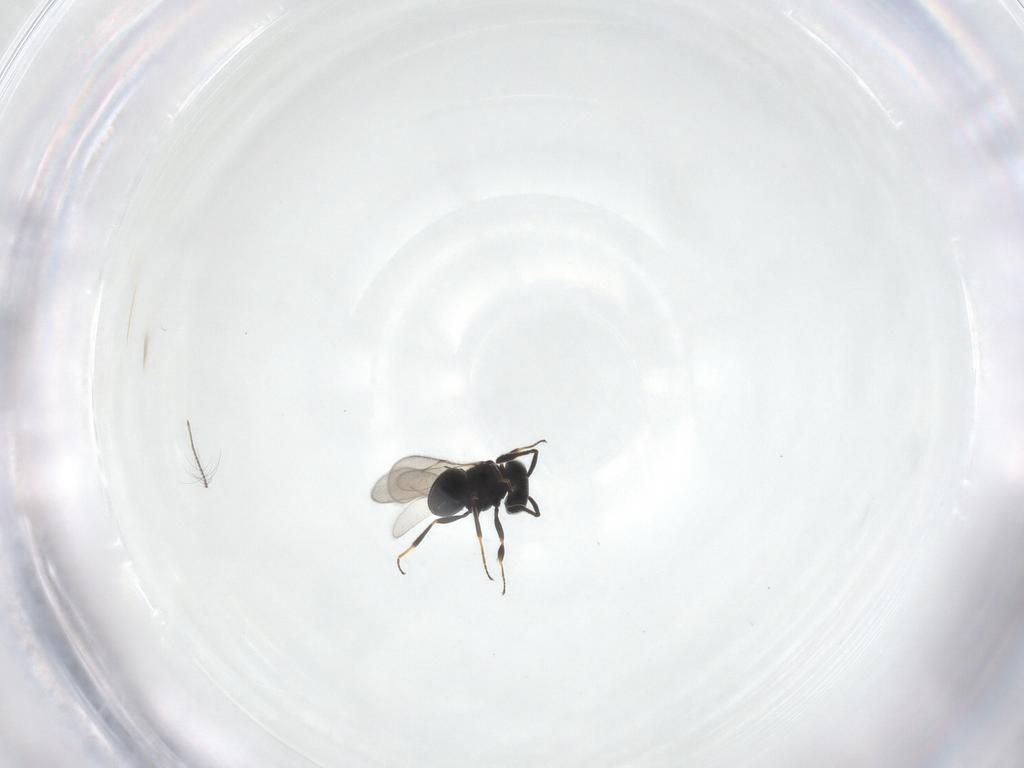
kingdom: Animalia
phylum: Arthropoda
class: Insecta
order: Hymenoptera
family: Scelionidae
